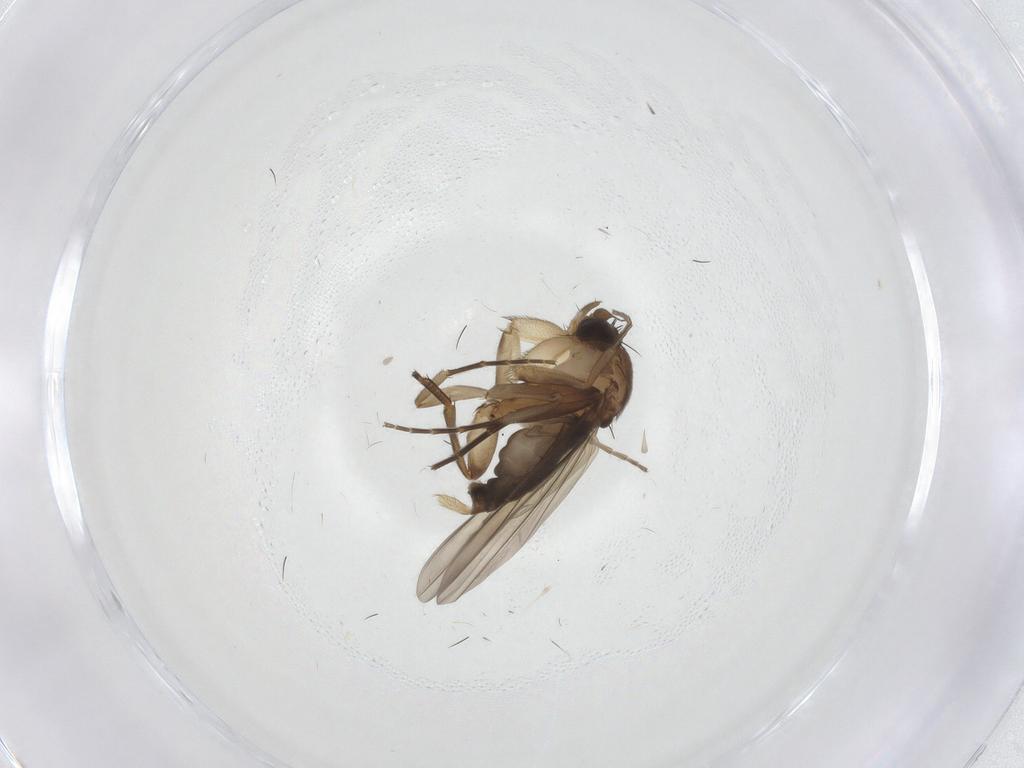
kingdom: Animalia
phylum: Arthropoda
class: Insecta
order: Diptera
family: Phoridae
